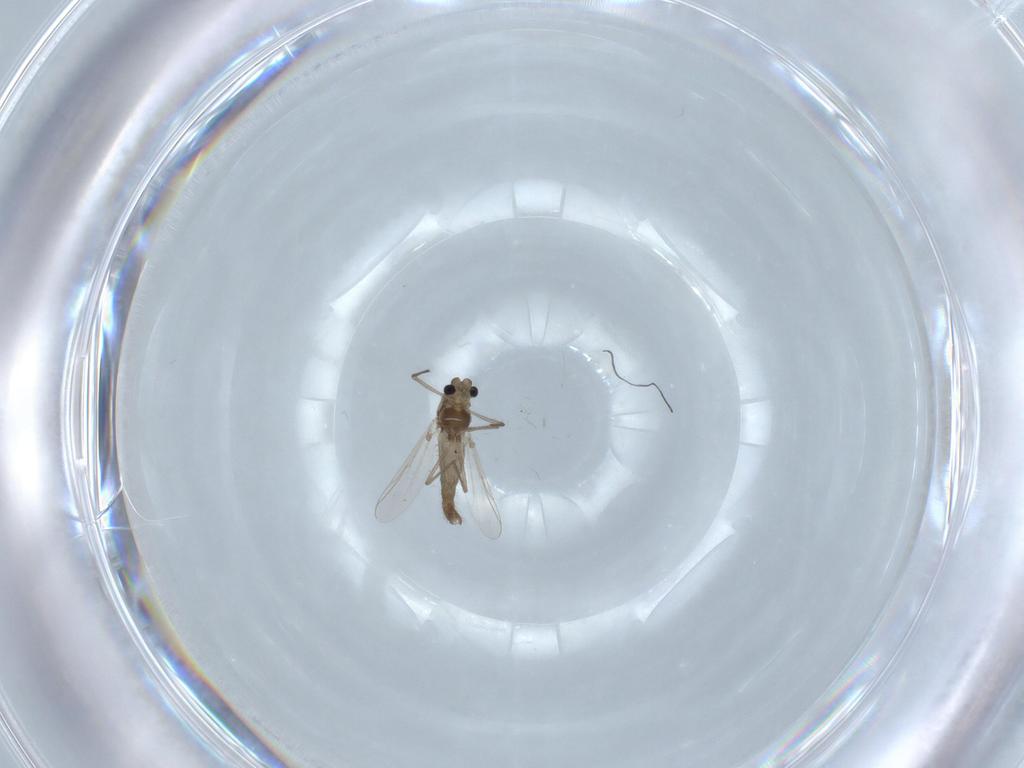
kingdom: Animalia
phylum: Arthropoda
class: Insecta
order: Diptera
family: Chironomidae
